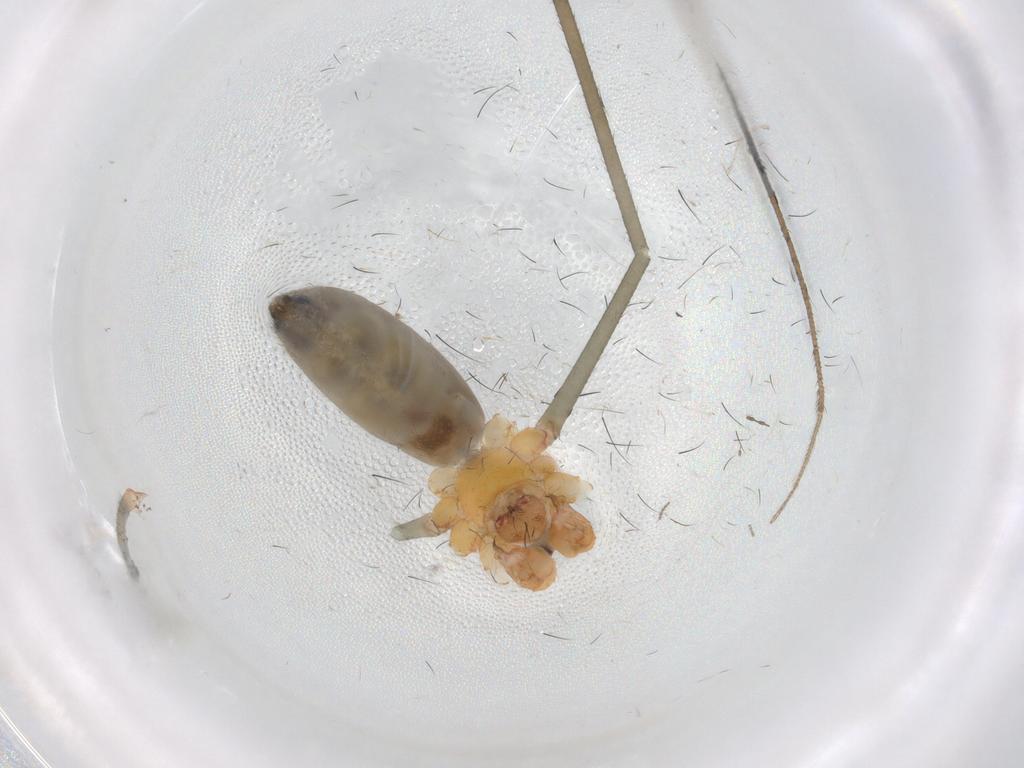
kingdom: Animalia
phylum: Arthropoda
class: Arachnida
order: Araneae
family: Pholcidae
